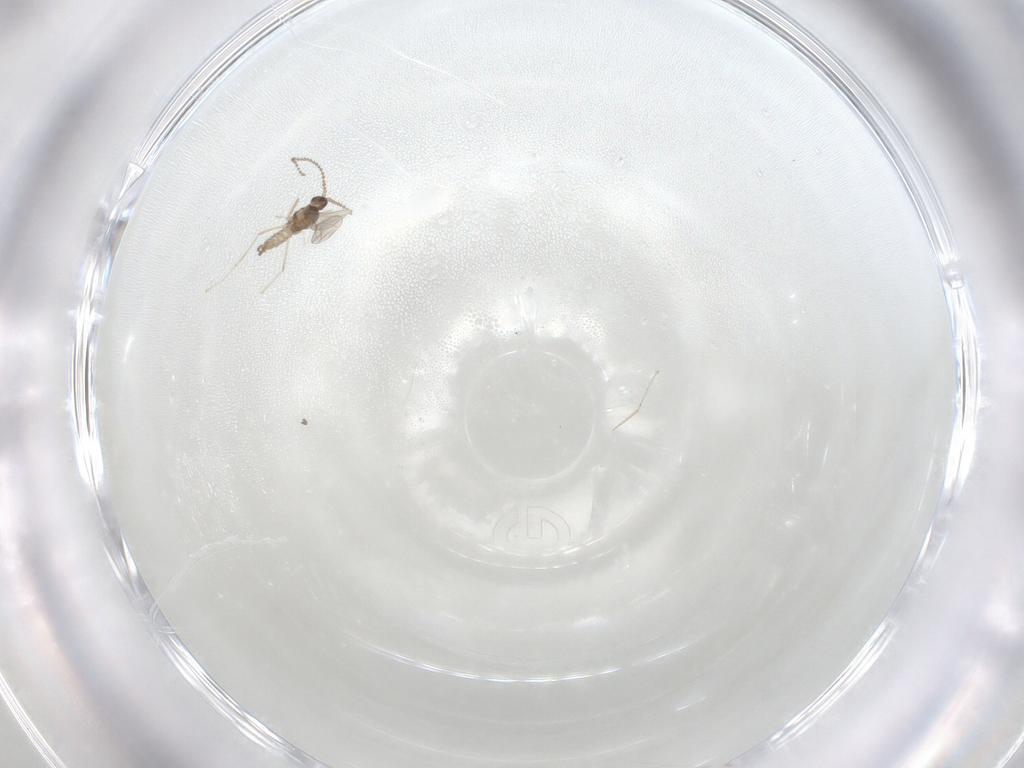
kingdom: Animalia
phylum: Arthropoda
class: Insecta
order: Diptera
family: Cecidomyiidae
